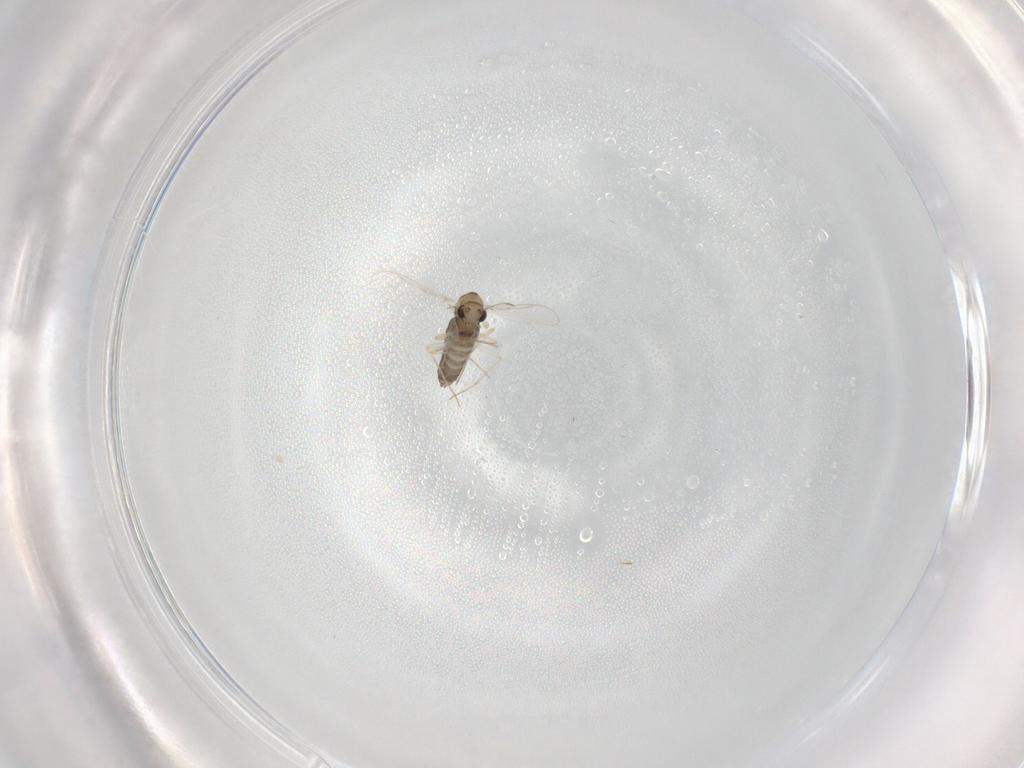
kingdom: Animalia
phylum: Arthropoda
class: Insecta
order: Diptera
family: Chironomidae
